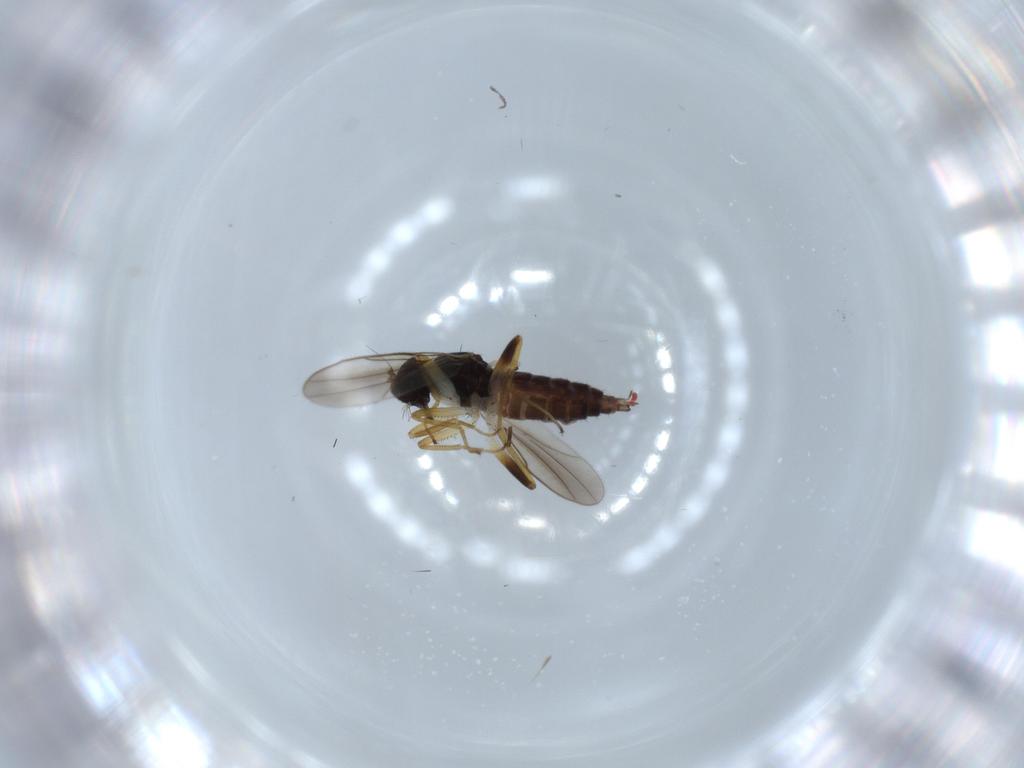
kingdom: Animalia
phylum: Arthropoda
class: Insecta
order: Diptera
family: Hybotidae
